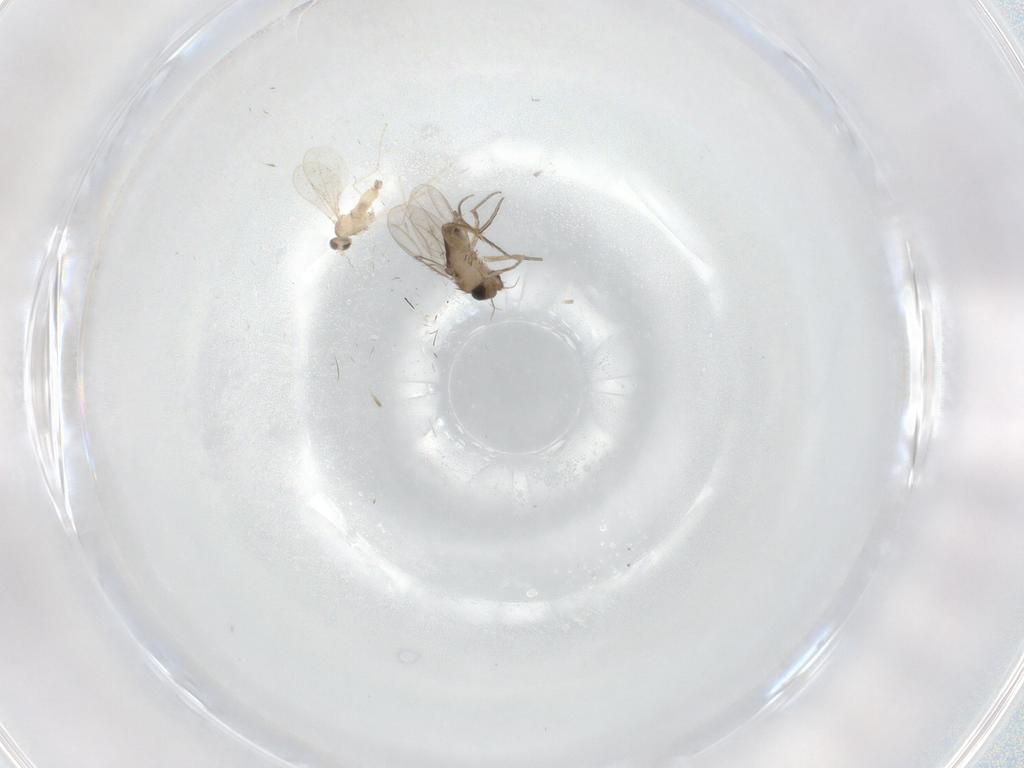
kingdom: Animalia
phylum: Arthropoda
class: Insecta
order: Diptera
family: Cecidomyiidae
